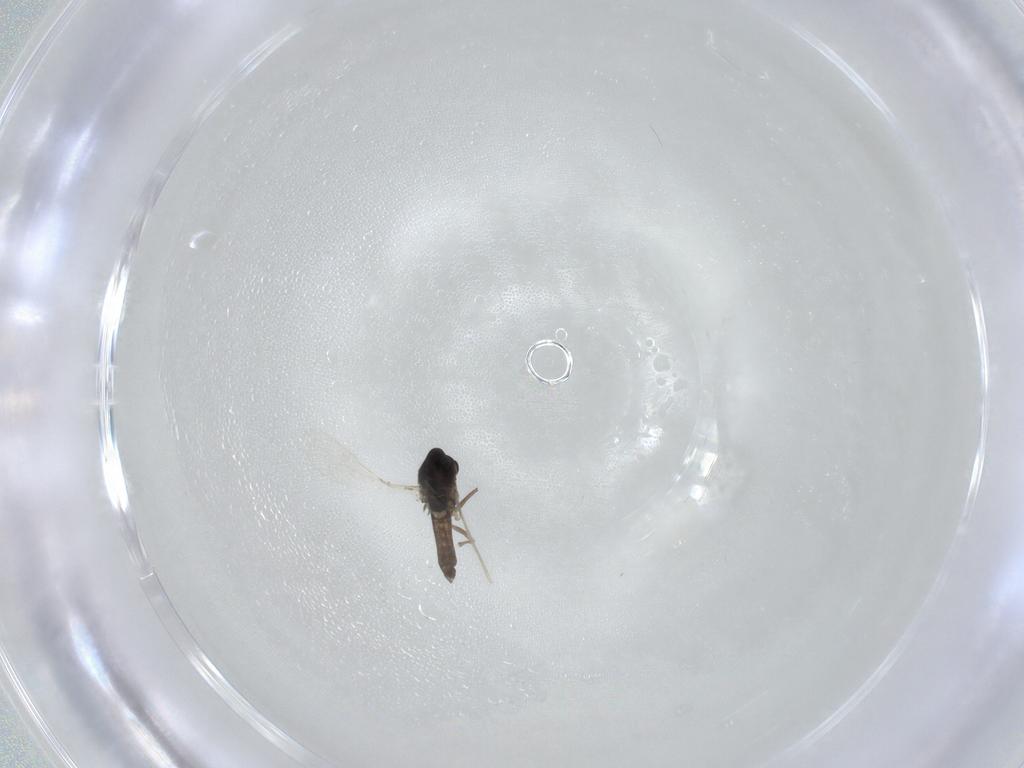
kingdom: Animalia
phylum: Arthropoda
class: Insecta
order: Diptera
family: Chironomidae
